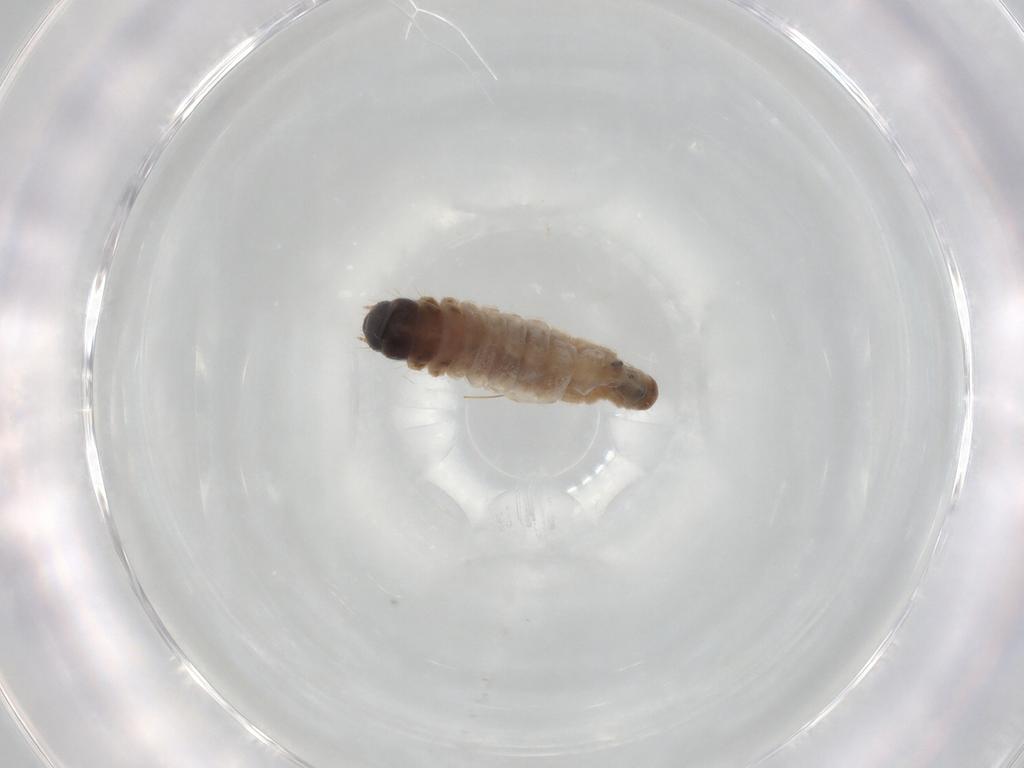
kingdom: Animalia
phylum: Arthropoda
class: Insecta
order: Lepidoptera
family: Psychidae
